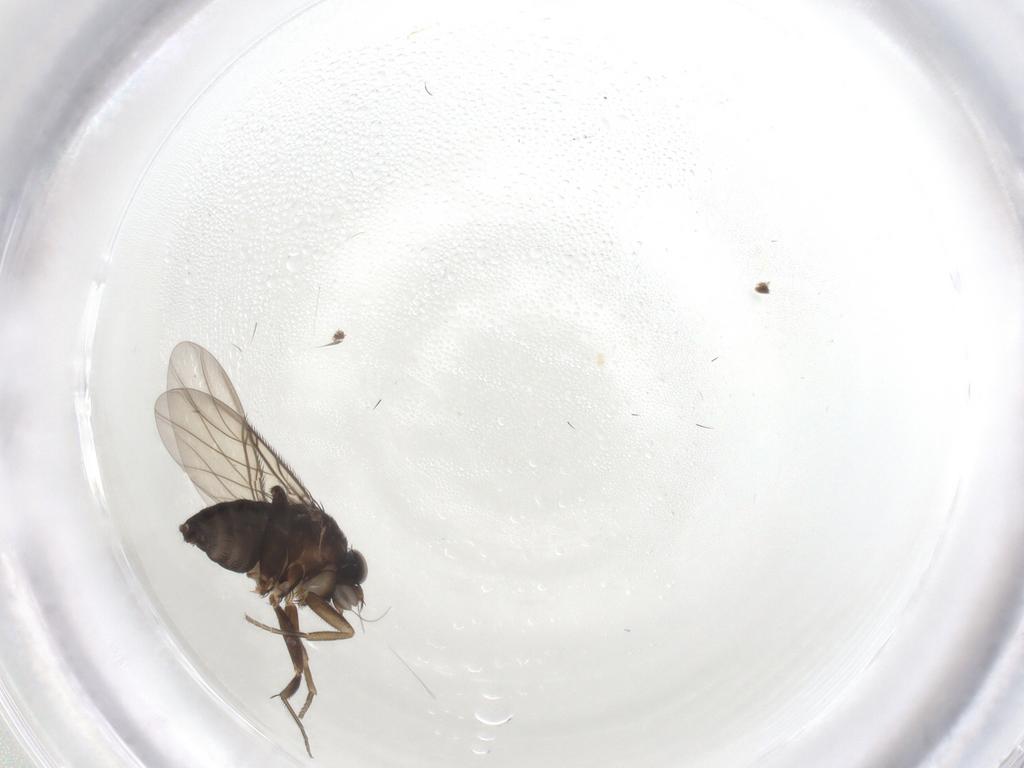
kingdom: Animalia
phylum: Arthropoda
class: Insecta
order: Diptera
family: Phoridae
